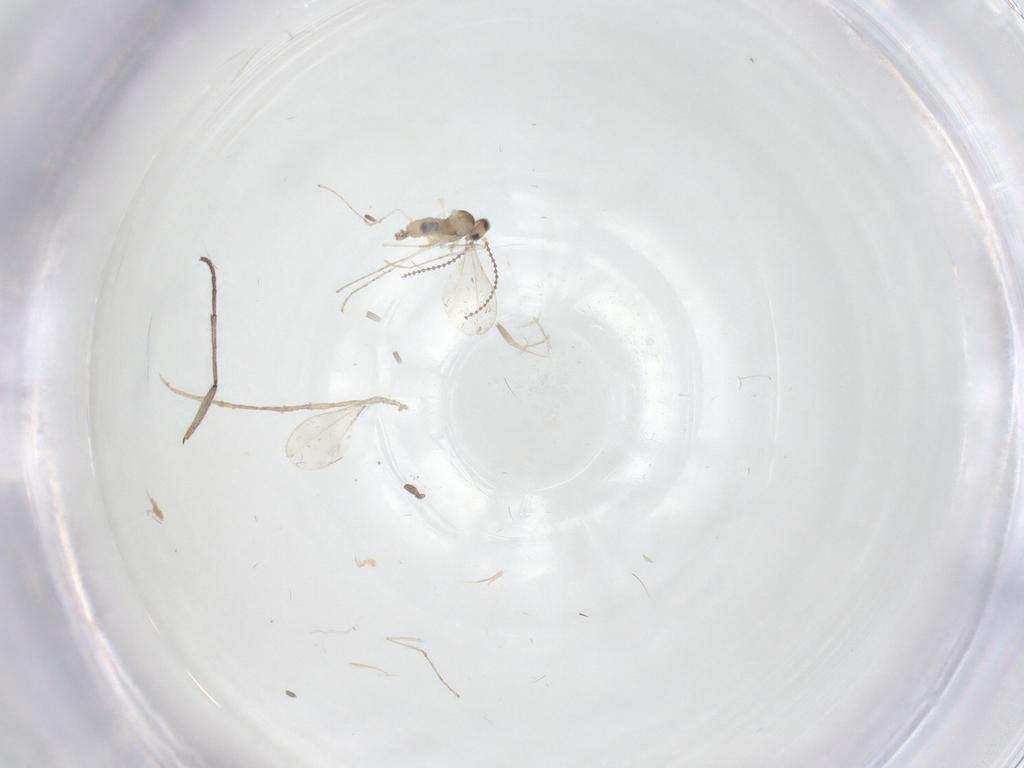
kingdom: Animalia
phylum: Arthropoda
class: Insecta
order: Diptera
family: Sciaridae
